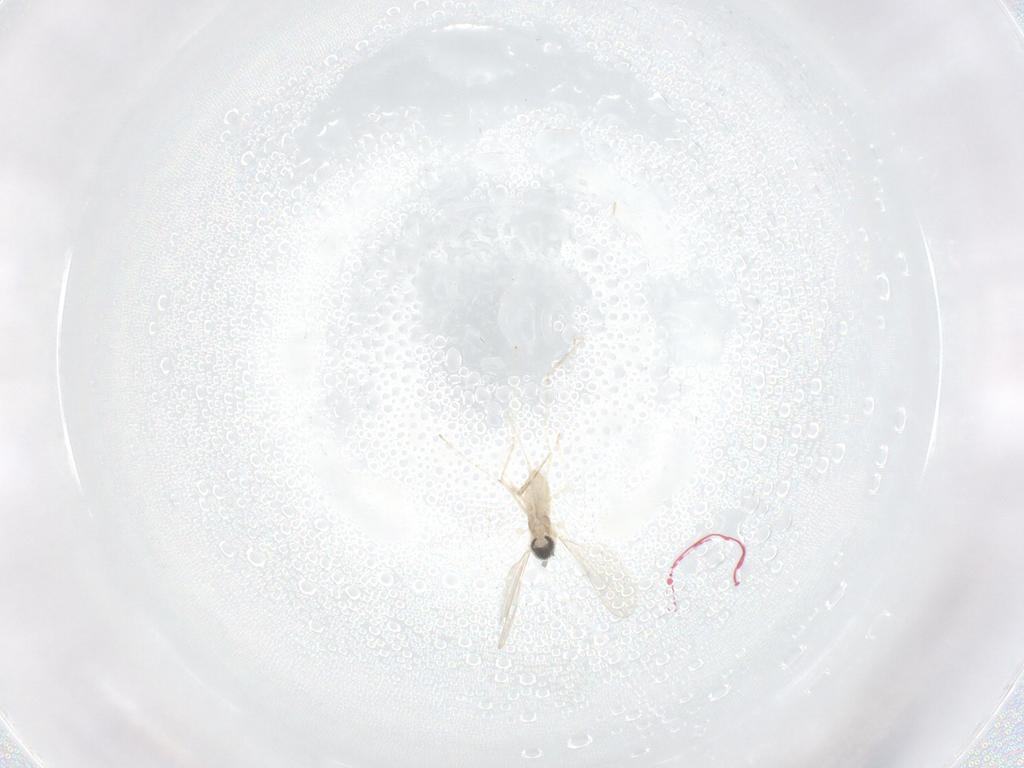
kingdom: Animalia
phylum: Arthropoda
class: Insecta
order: Diptera
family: Cecidomyiidae
